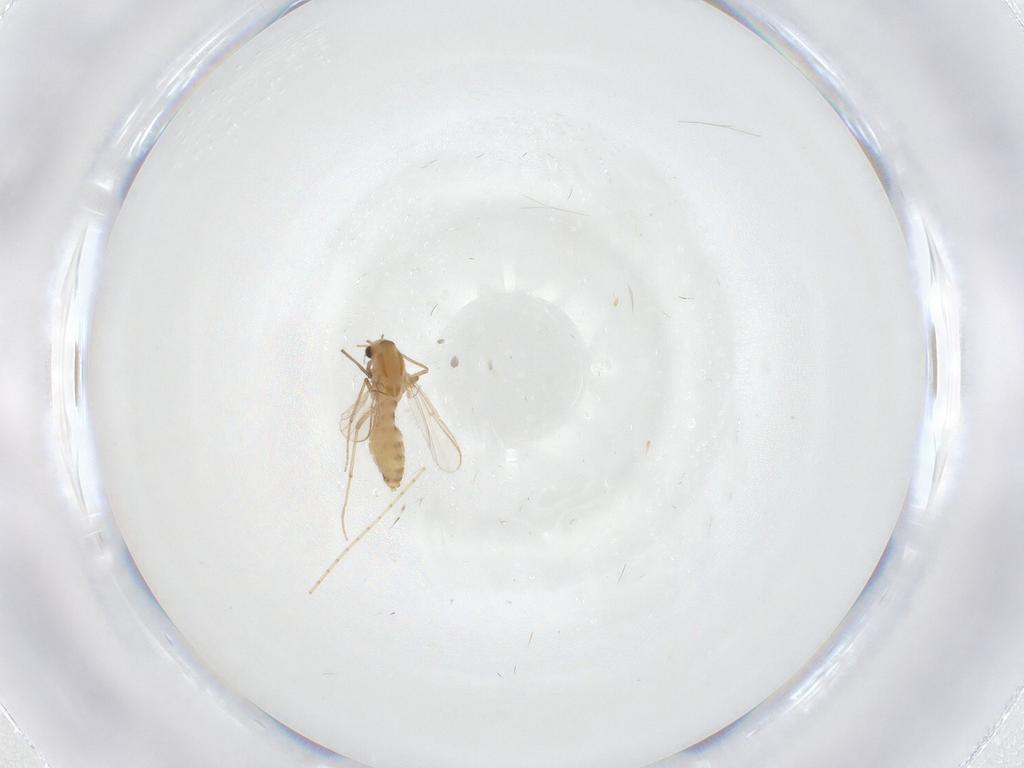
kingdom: Animalia
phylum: Arthropoda
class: Insecta
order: Diptera
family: Chironomidae
